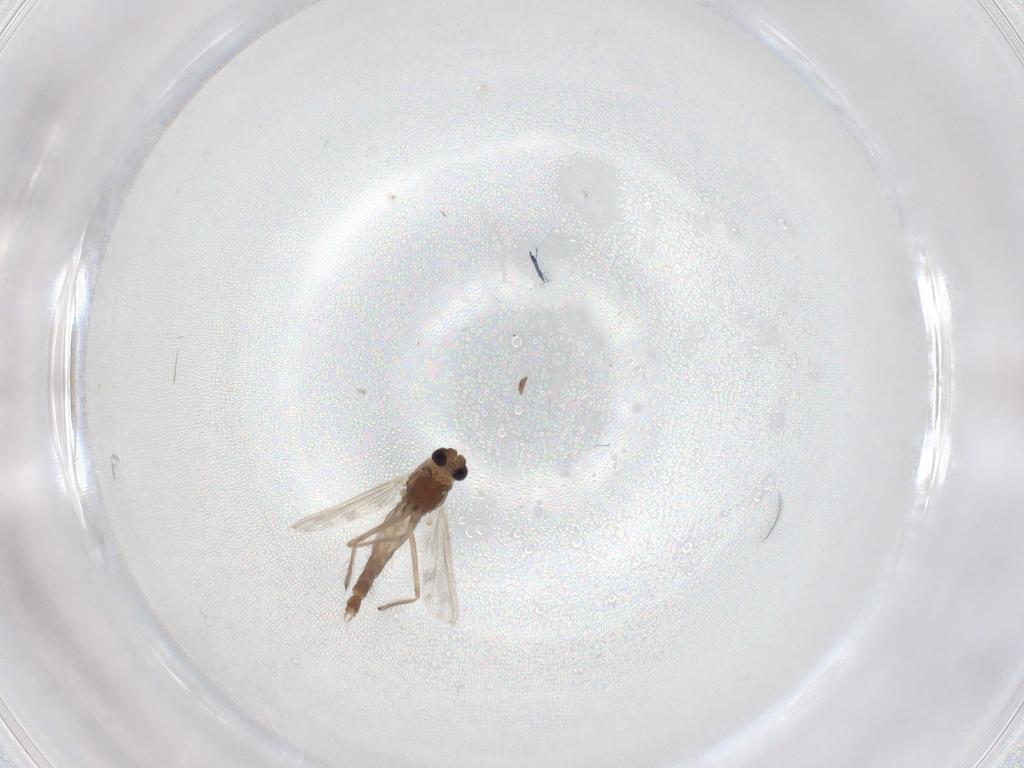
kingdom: Animalia
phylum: Arthropoda
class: Insecta
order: Diptera
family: Chironomidae
